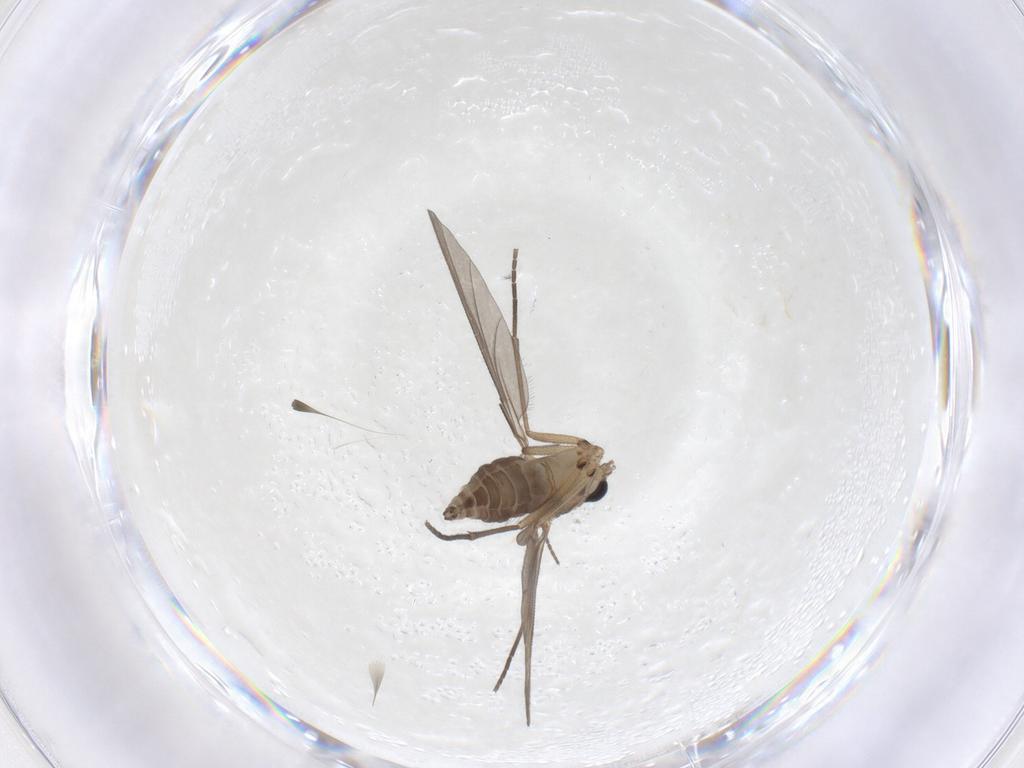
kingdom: Animalia
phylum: Arthropoda
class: Insecta
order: Diptera
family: Sciaridae
